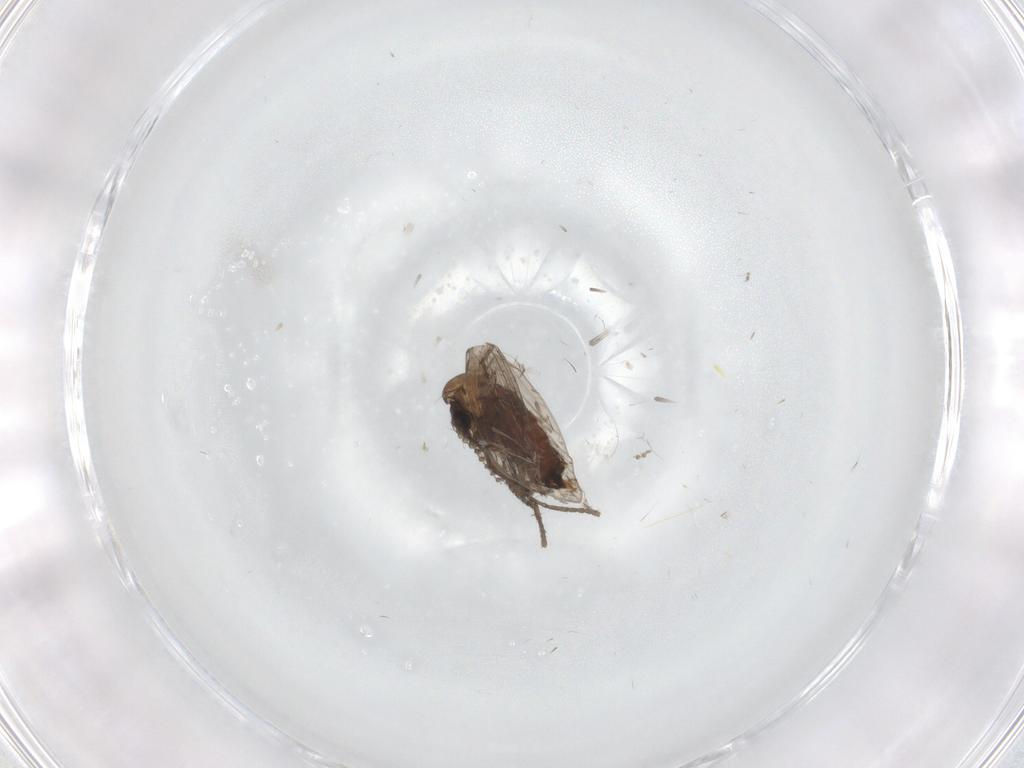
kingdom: Animalia
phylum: Arthropoda
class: Insecta
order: Diptera
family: Psychodidae
